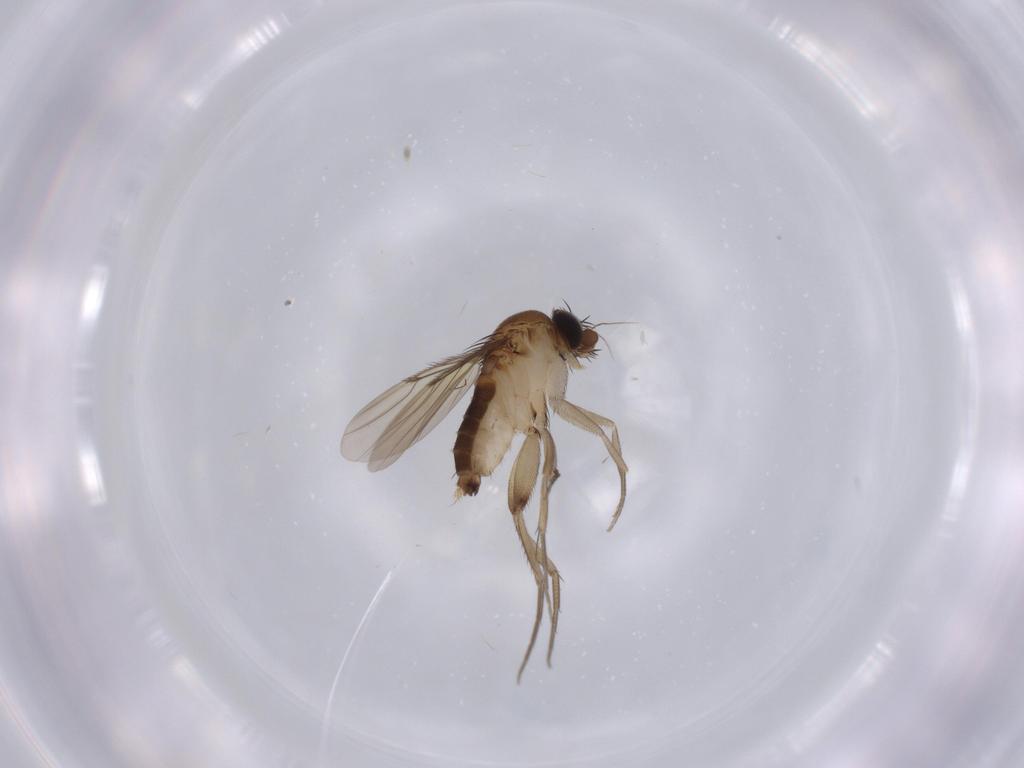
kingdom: Animalia
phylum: Arthropoda
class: Insecta
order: Diptera
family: Phoridae
